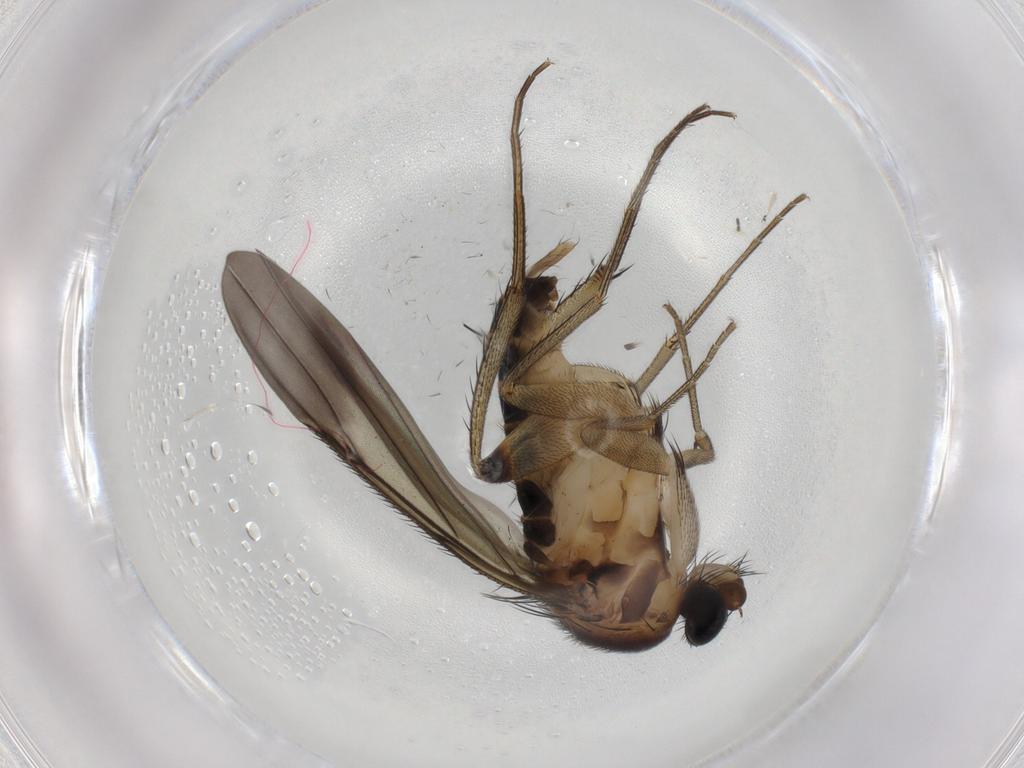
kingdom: Animalia
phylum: Arthropoda
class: Insecta
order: Diptera
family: Phoridae
